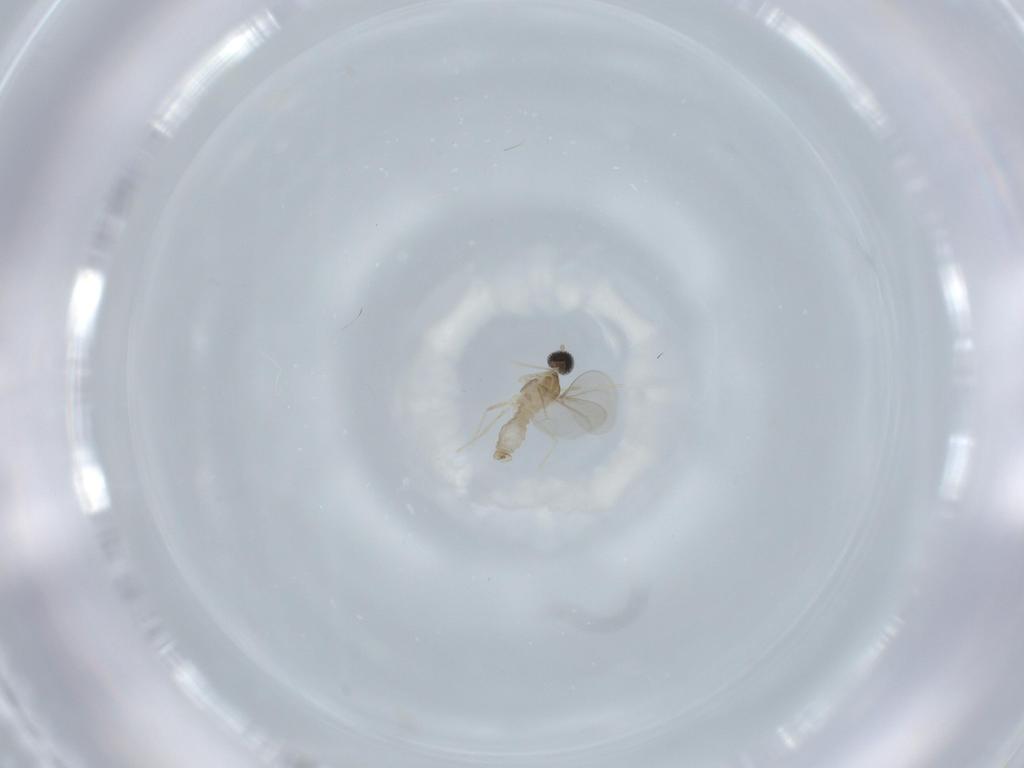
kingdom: Animalia
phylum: Arthropoda
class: Insecta
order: Diptera
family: Cecidomyiidae
